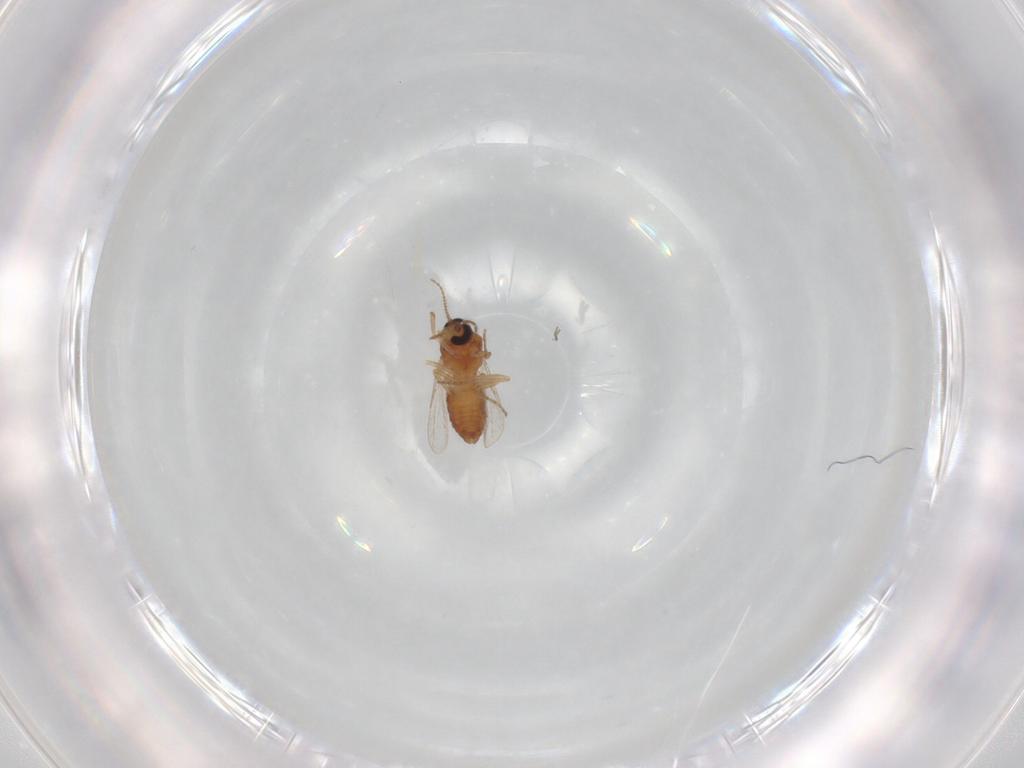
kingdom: Animalia
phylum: Arthropoda
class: Insecta
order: Diptera
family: Ceratopogonidae
